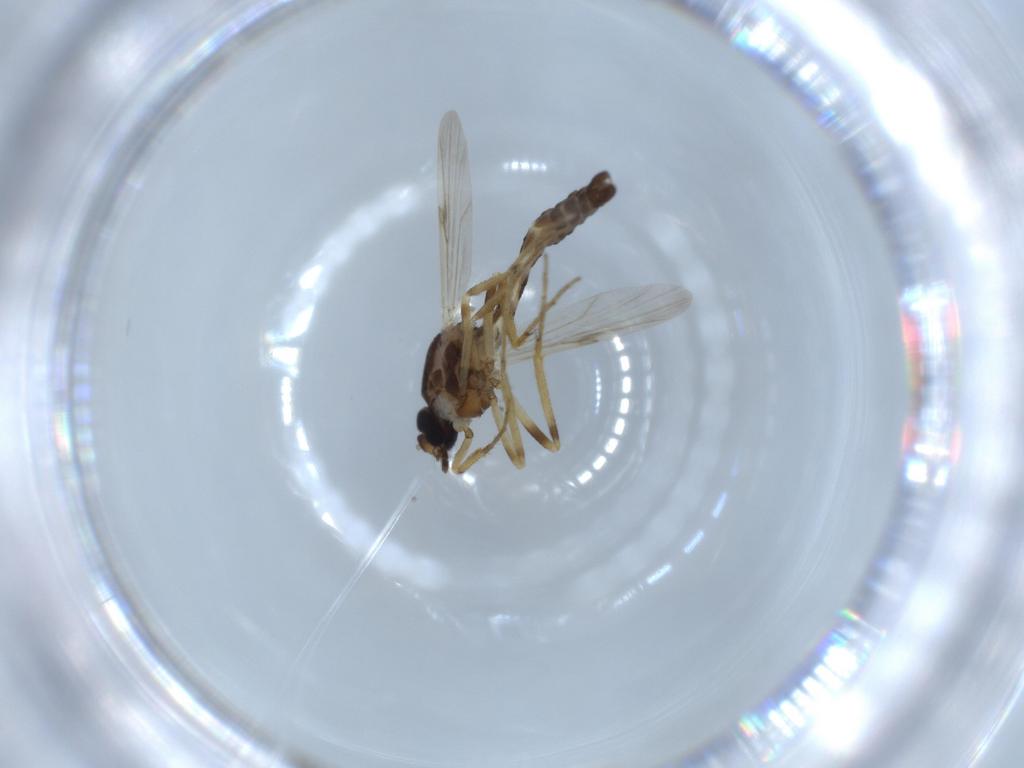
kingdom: Animalia
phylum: Arthropoda
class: Insecta
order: Diptera
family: Ceratopogonidae
